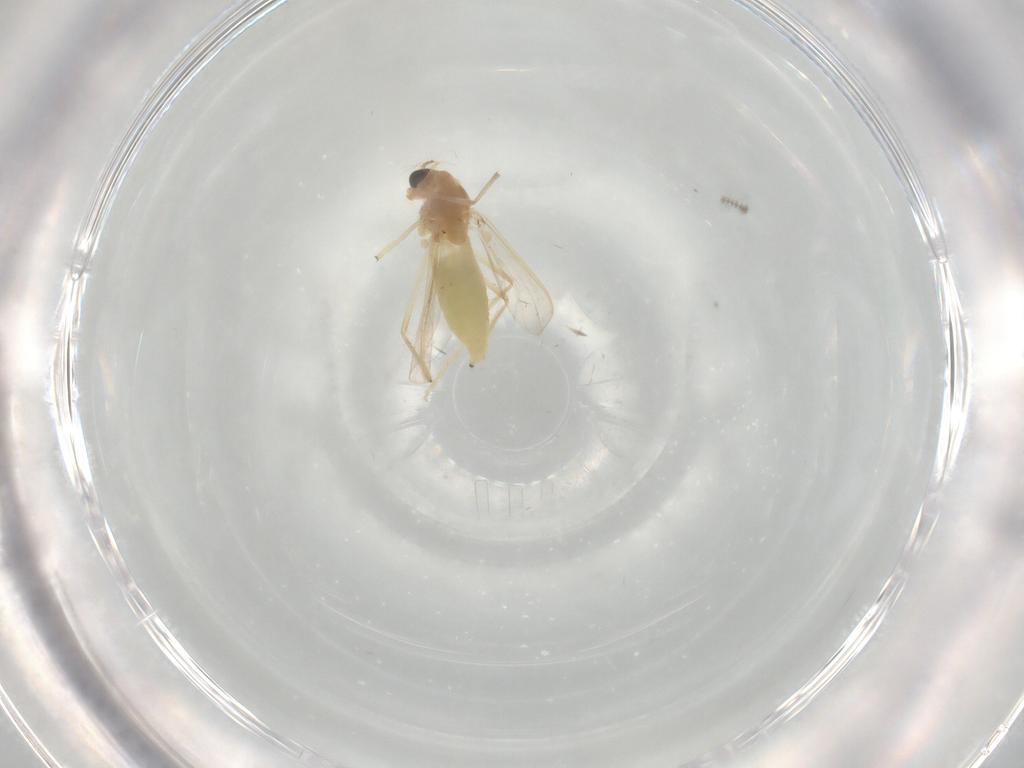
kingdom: Animalia
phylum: Arthropoda
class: Insecta
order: Diptera
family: Chironomidae
